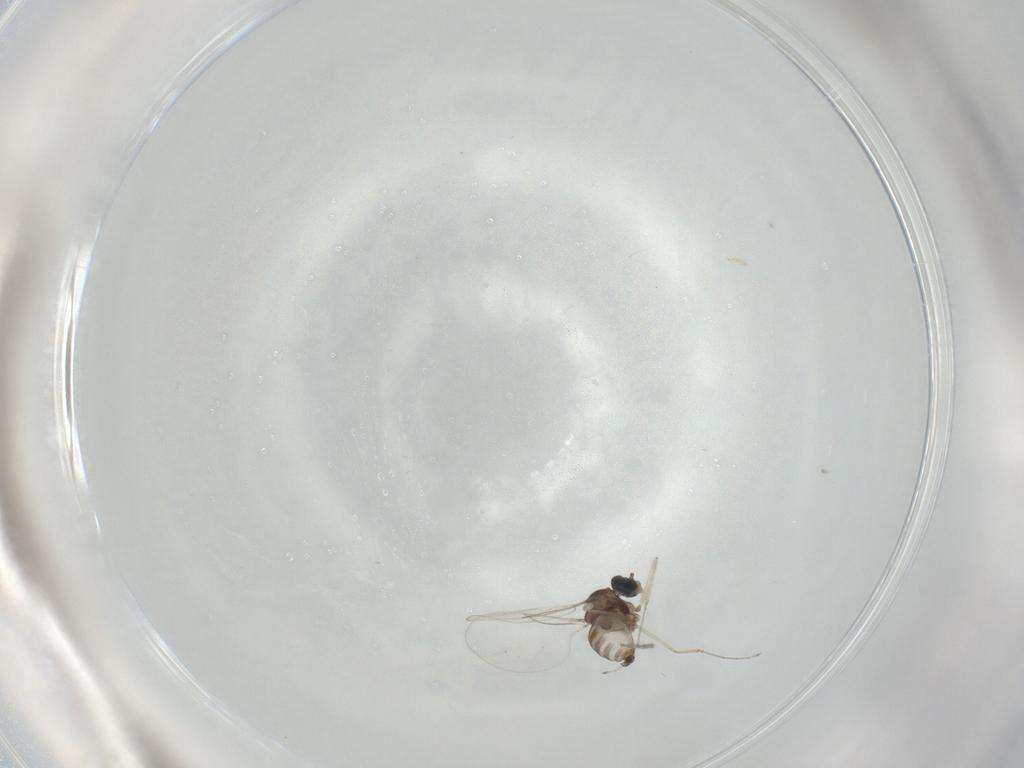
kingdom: Animalia
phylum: Arthropoda
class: Insecta
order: Diptera
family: Cecidomyiidae
